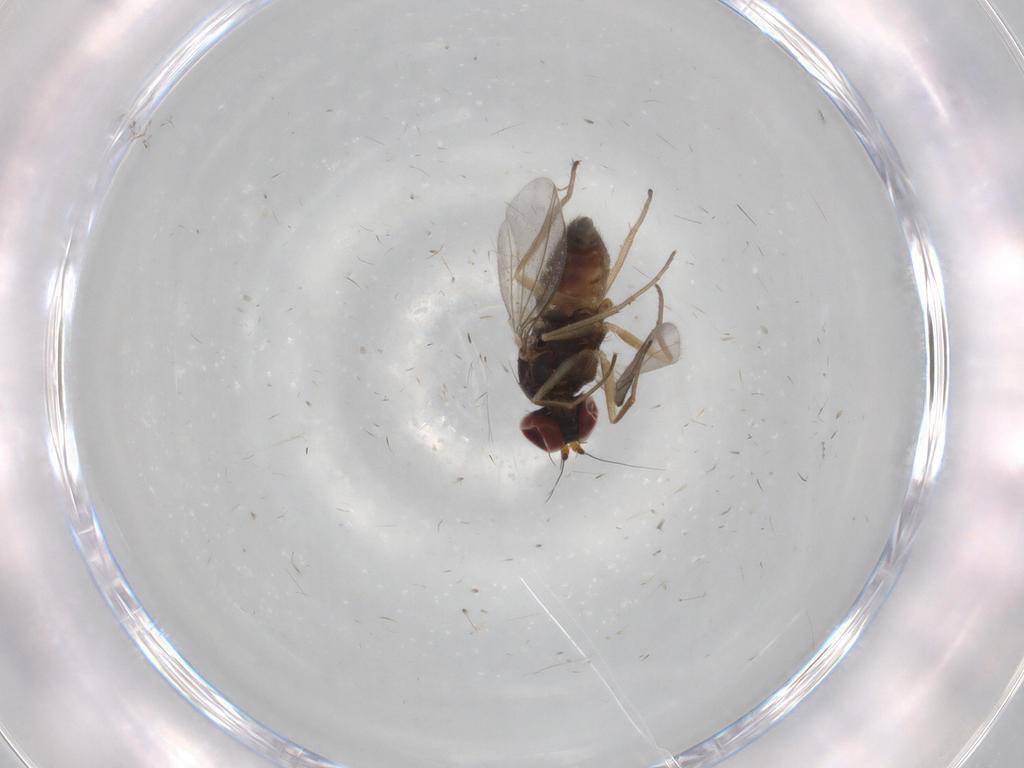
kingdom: Animalia
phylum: Arthropoda
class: Insecta
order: Diptera
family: Cecidomyiidae
